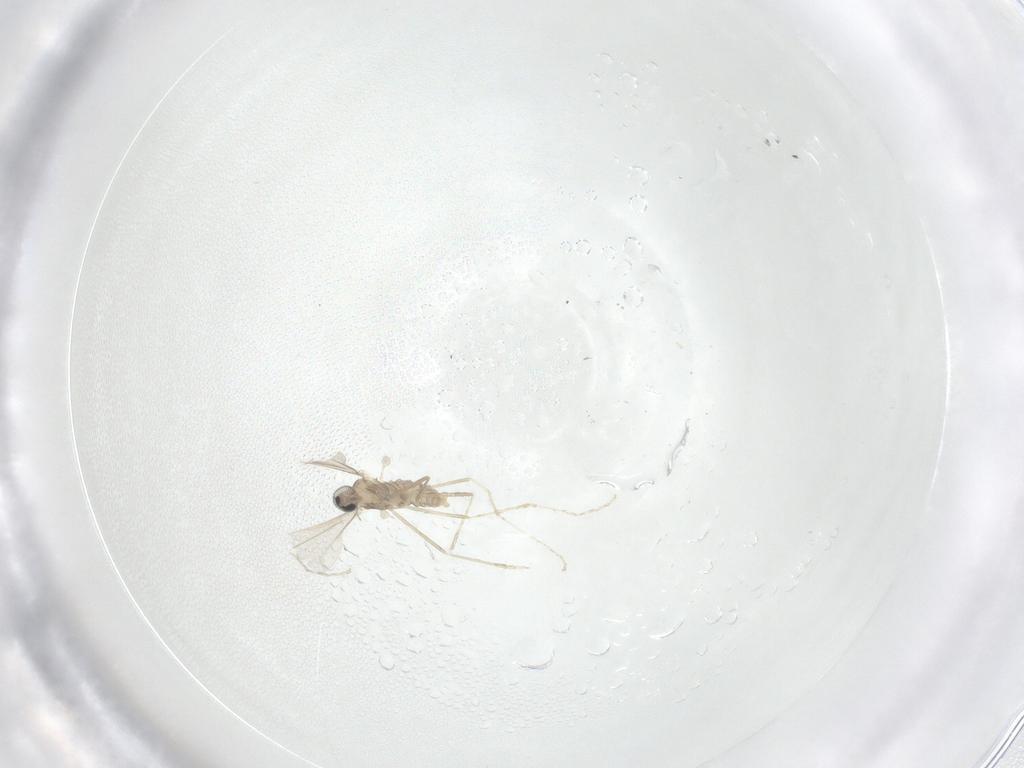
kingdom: Animalia
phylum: Arthropoda
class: Insecta
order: Diptera
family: Cecidomyiidae
